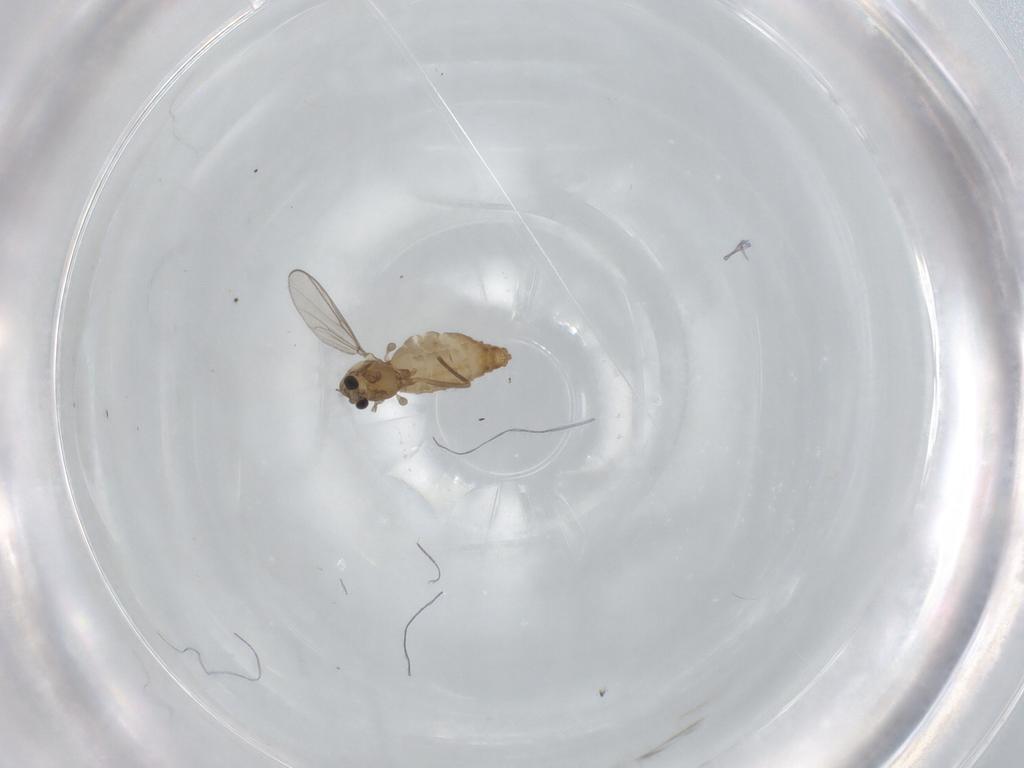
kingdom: Animalia
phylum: Arthropoda
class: Insecta
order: Diptera
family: Chironomidae
